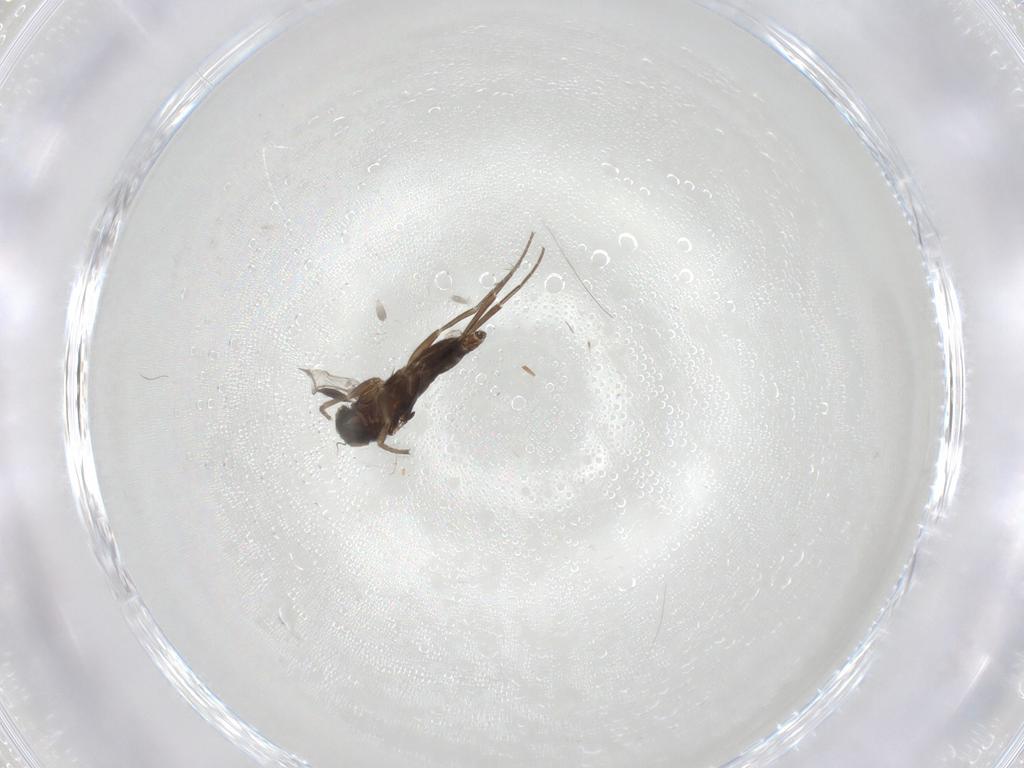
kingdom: Animalia
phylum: Arthropoda
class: Insecta
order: Diptera
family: Cecidomyiidae
